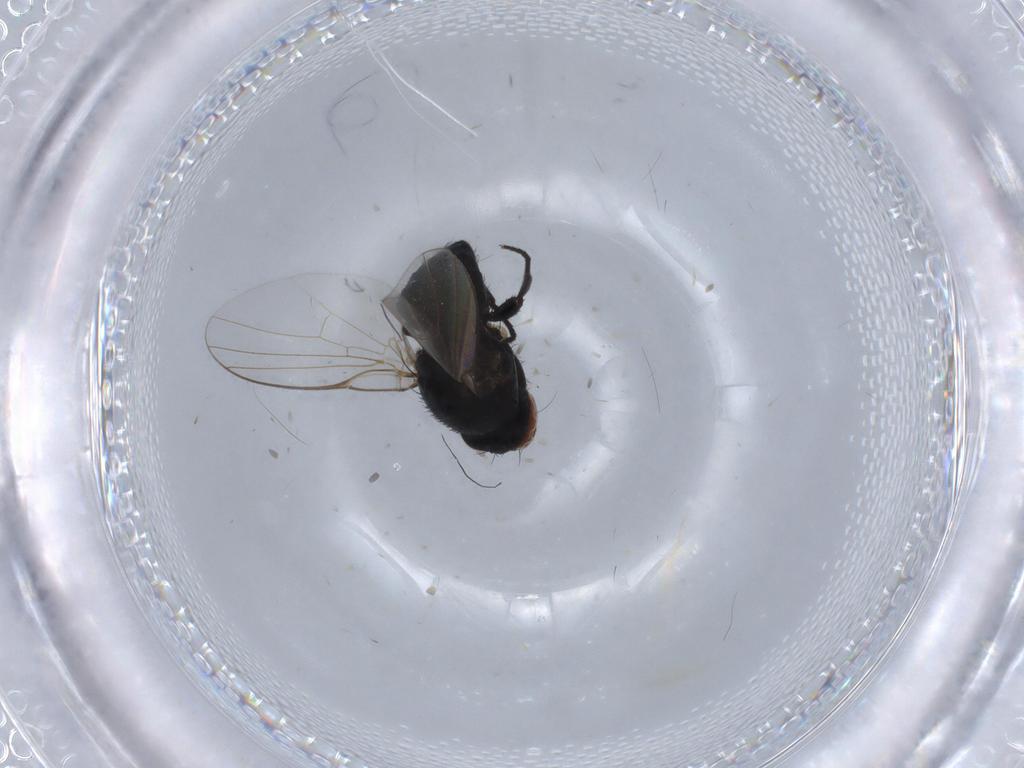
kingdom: Animalia
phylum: Arthropoda
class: Insecta
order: Diptera
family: Agromyzidae
